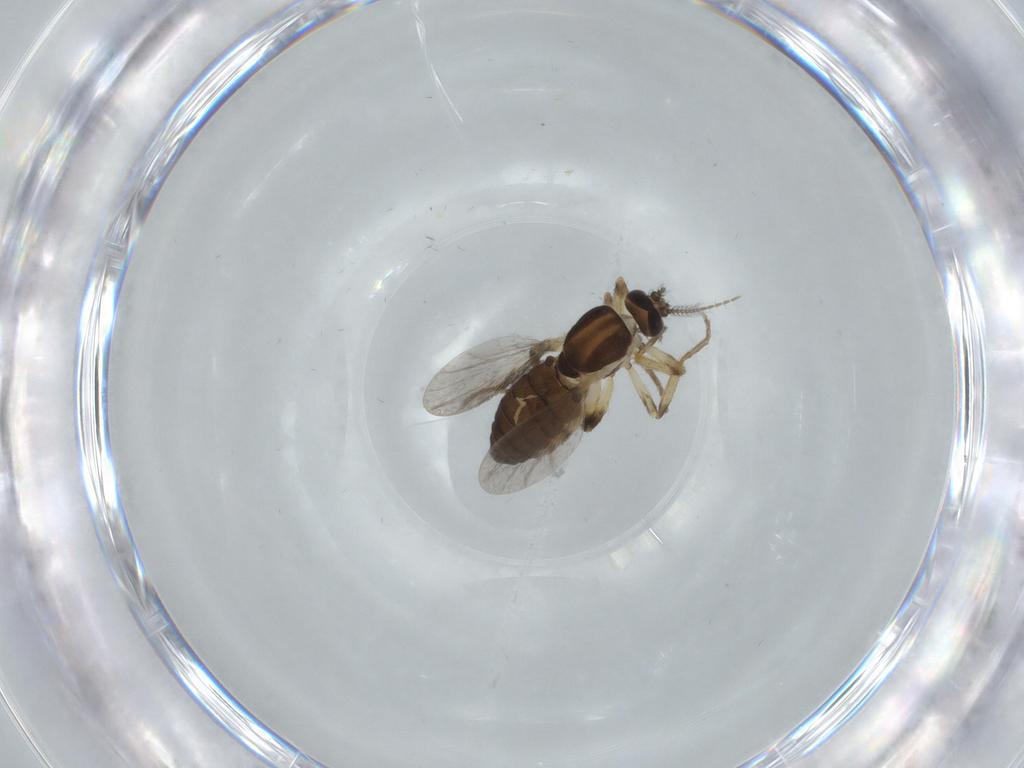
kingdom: Animalia
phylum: Arthropoda
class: Insecta
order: Diptera
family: Ceratopogonidae
